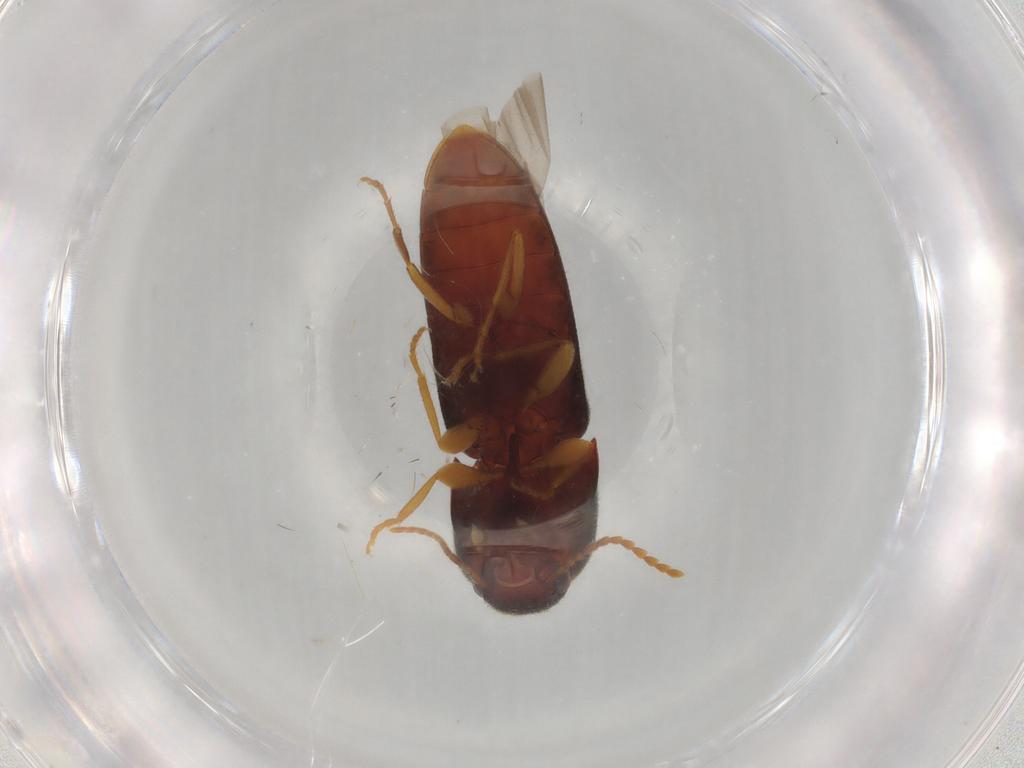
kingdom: Animalia
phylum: Arthropoda
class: Insecta
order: Coleoptera
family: Elateridae
